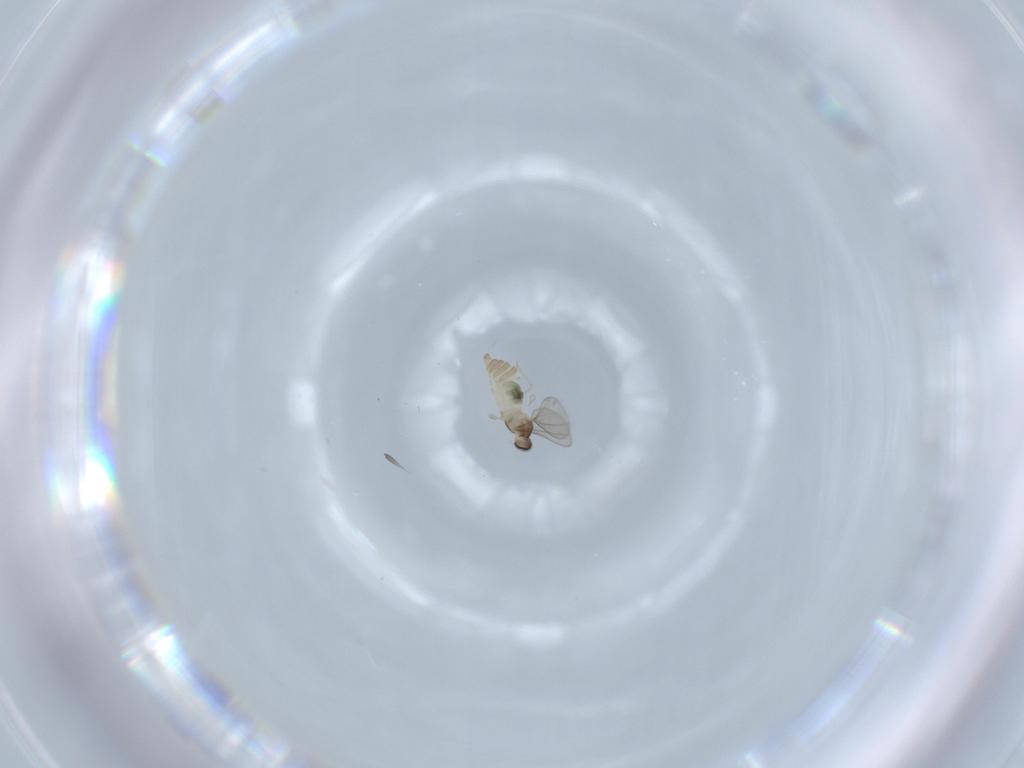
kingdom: Animalia
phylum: Arthropoda
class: Insecta
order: Diptera
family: Cecidomyiidae
